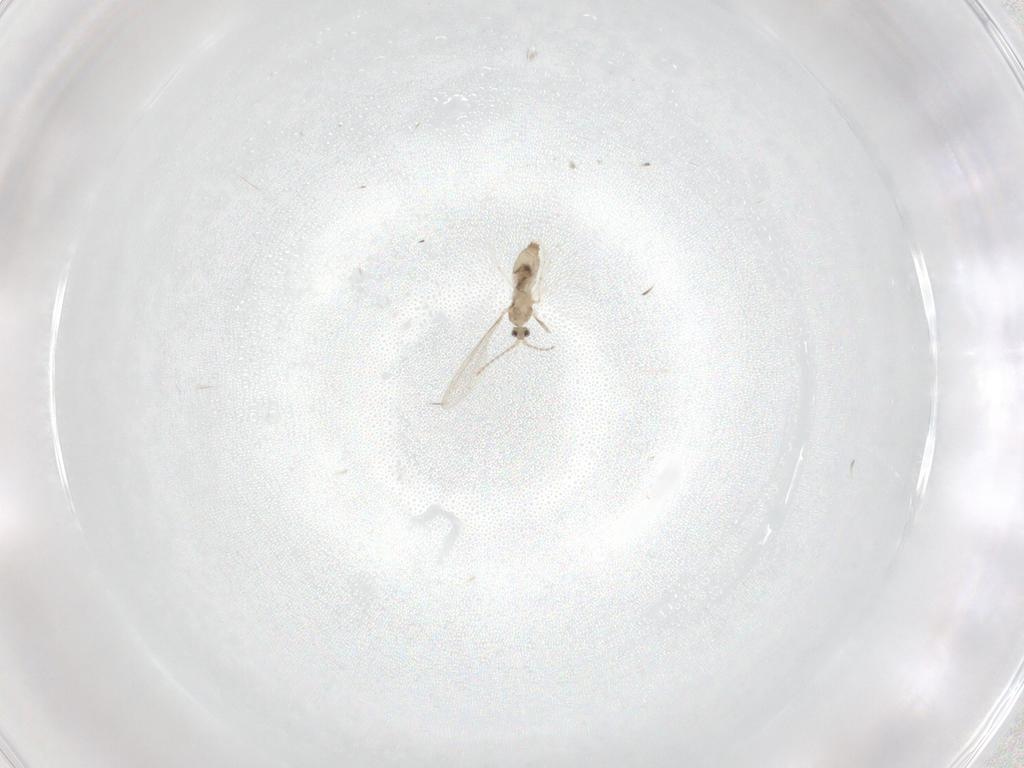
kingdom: Animalia
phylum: Arthropoda
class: Insecta
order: Diptera
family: Cecidomyiidae
